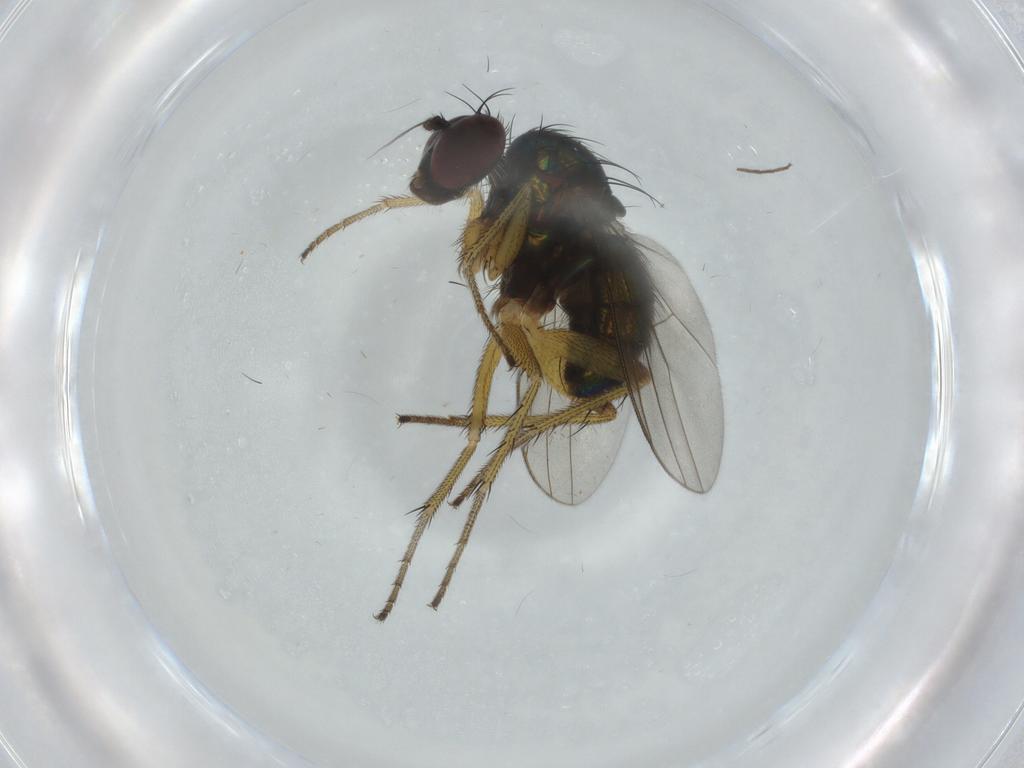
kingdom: Animalia
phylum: Arthropoda
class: Insecta
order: Diptera
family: Dolichopodidae
